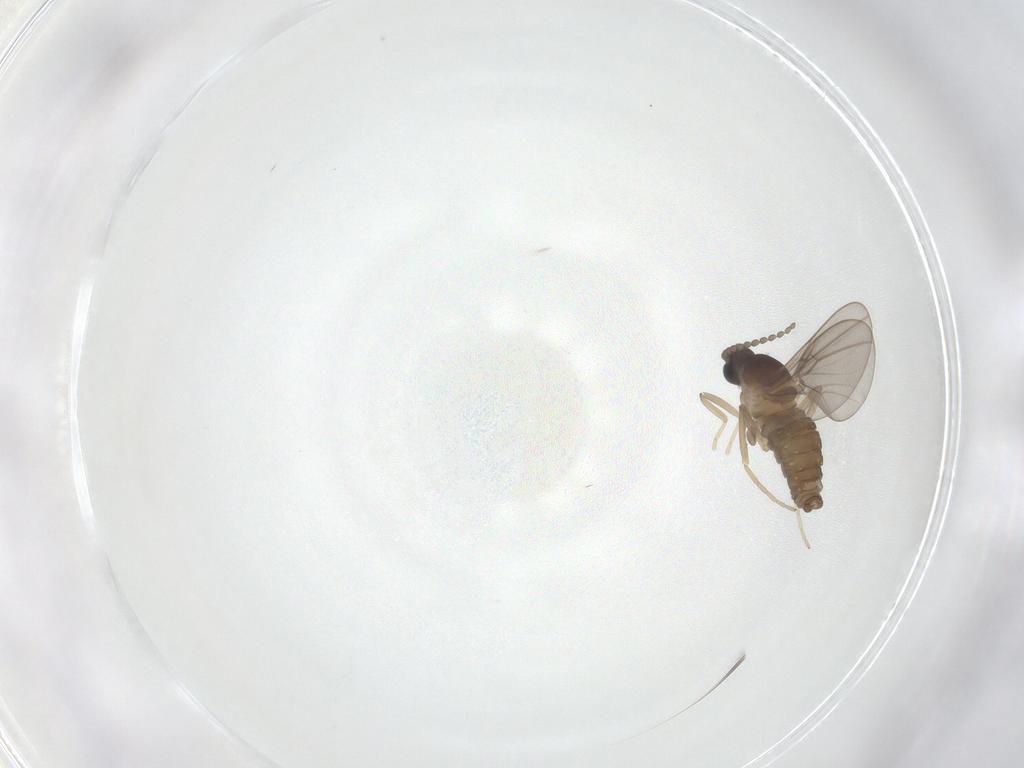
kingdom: Animalia
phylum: Arthropoda
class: Insecta
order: Diptera
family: Cecidomyiidae
